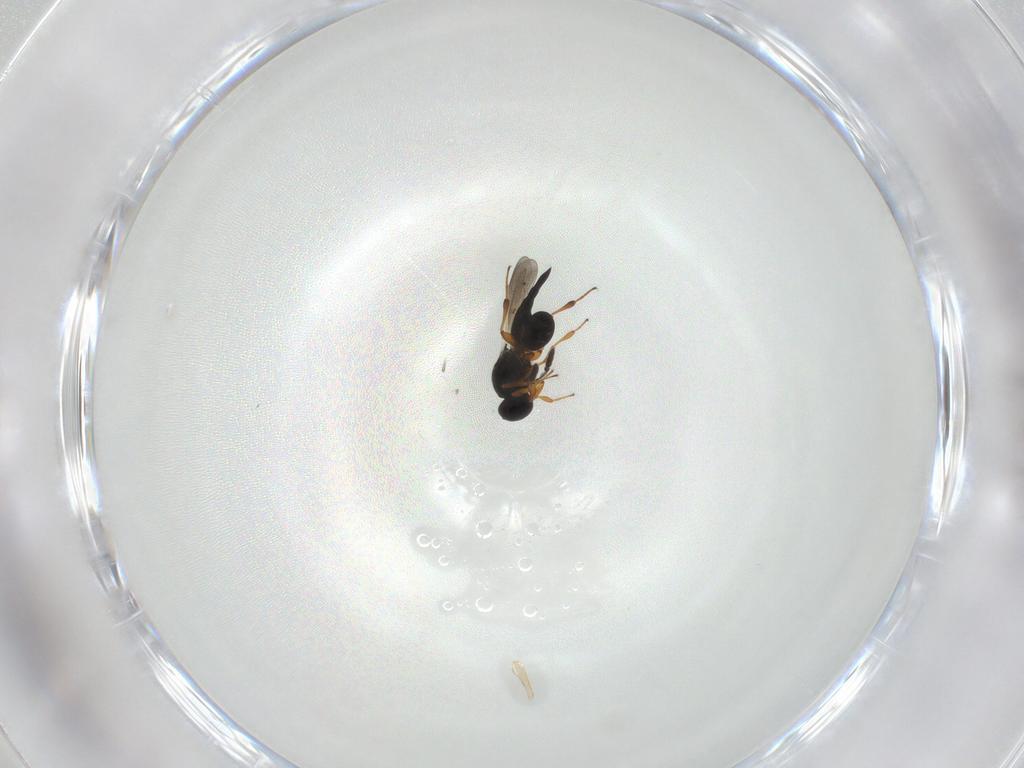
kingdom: Animalia
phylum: Arthropoda
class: Insecta
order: Hymenoptera
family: Platygastridae
